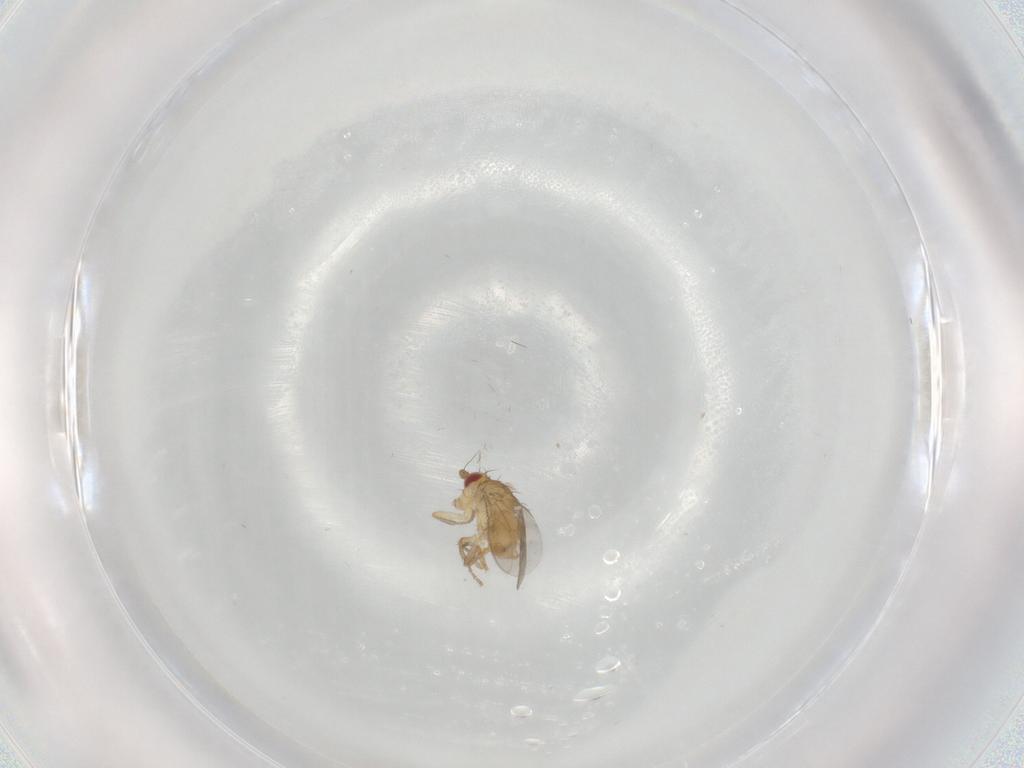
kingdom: Animalia
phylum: Arthropoda
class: Insecta
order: Diptera
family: Sphaeroceridae
